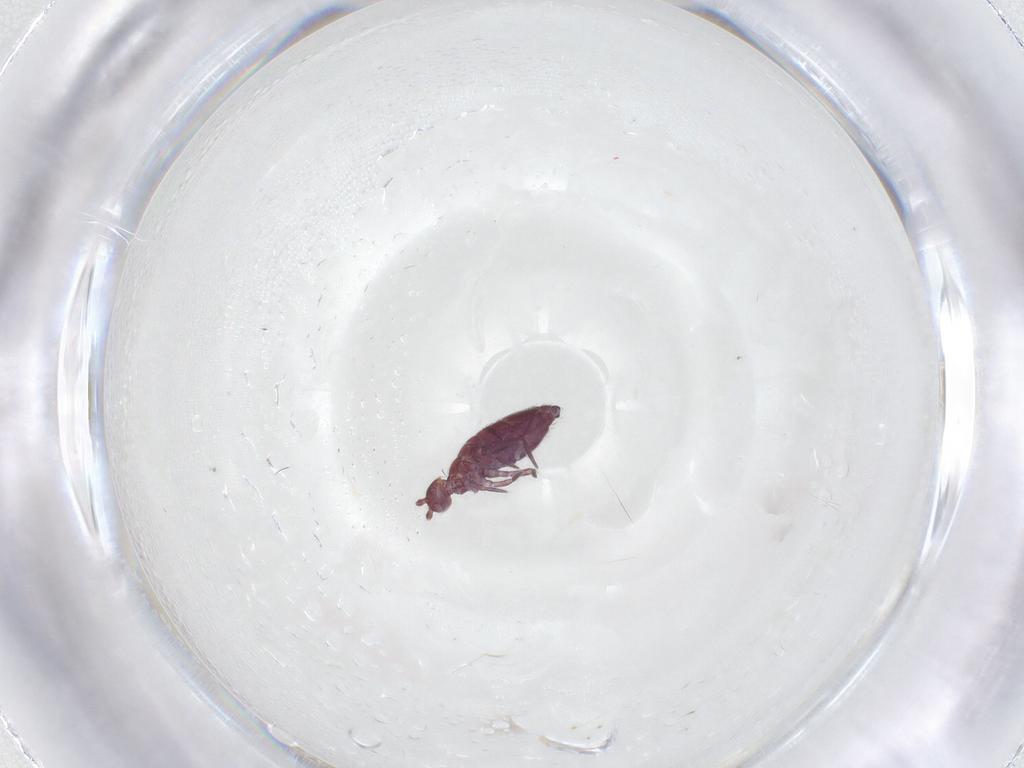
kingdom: Animalia
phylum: Arthropoda
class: Collembola
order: Entomobryomorpha
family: Entomobryidae
